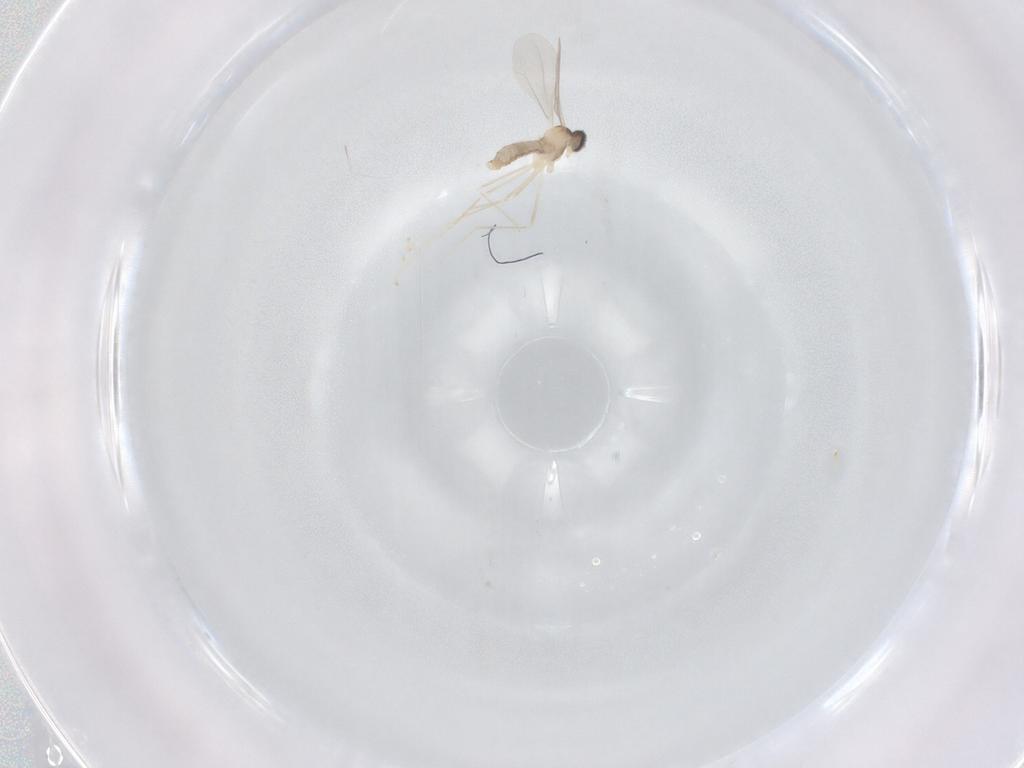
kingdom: Animalia
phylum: Arthropoda
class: Insecta
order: Diptera
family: Cecidomyiidae
